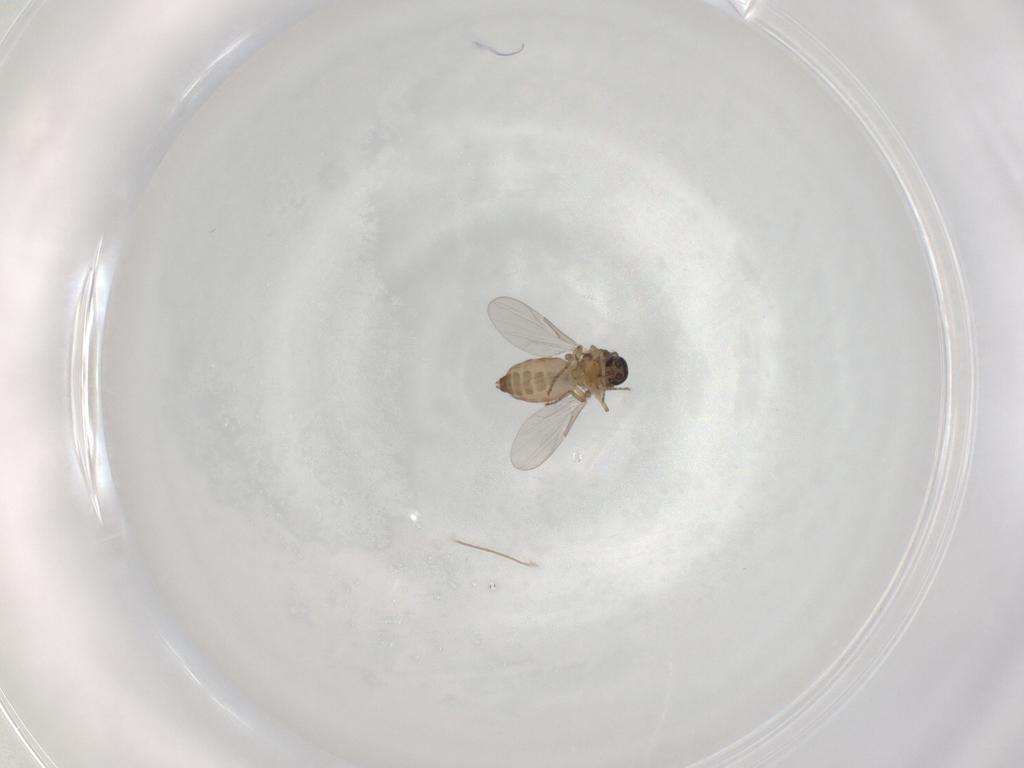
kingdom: Animalia
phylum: Arthropoda
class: Insecta
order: Diptera
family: Chironomidae
